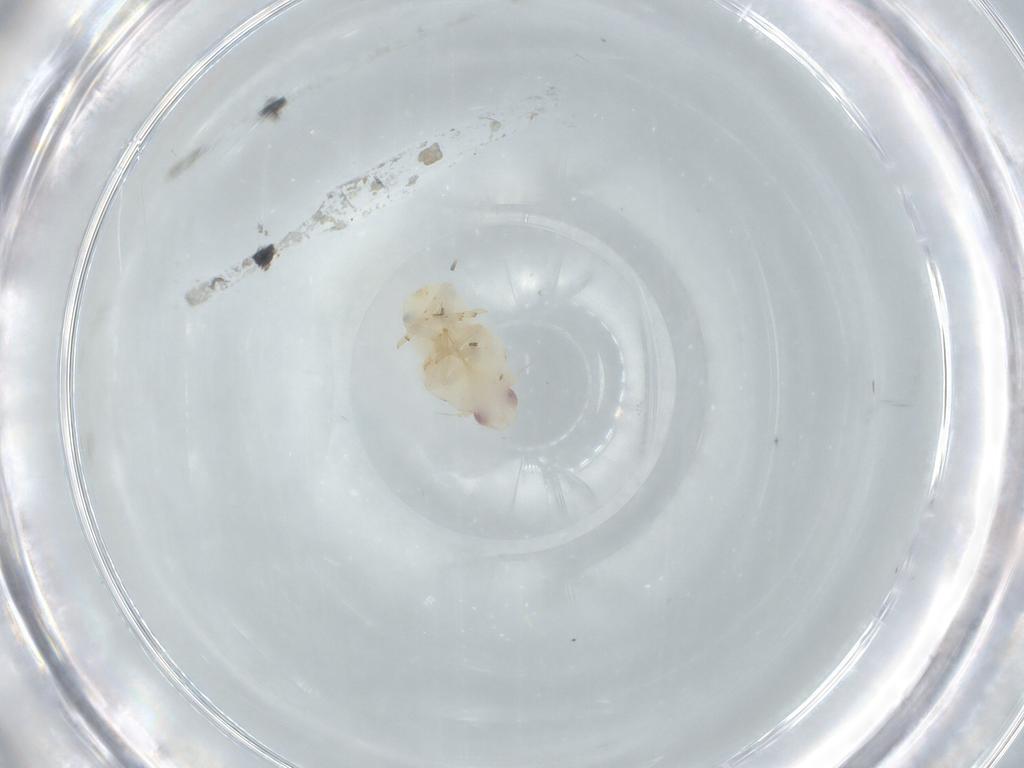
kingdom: Animalia
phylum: Arthropoda
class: Insecta
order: Hemiptera
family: Flatidae
